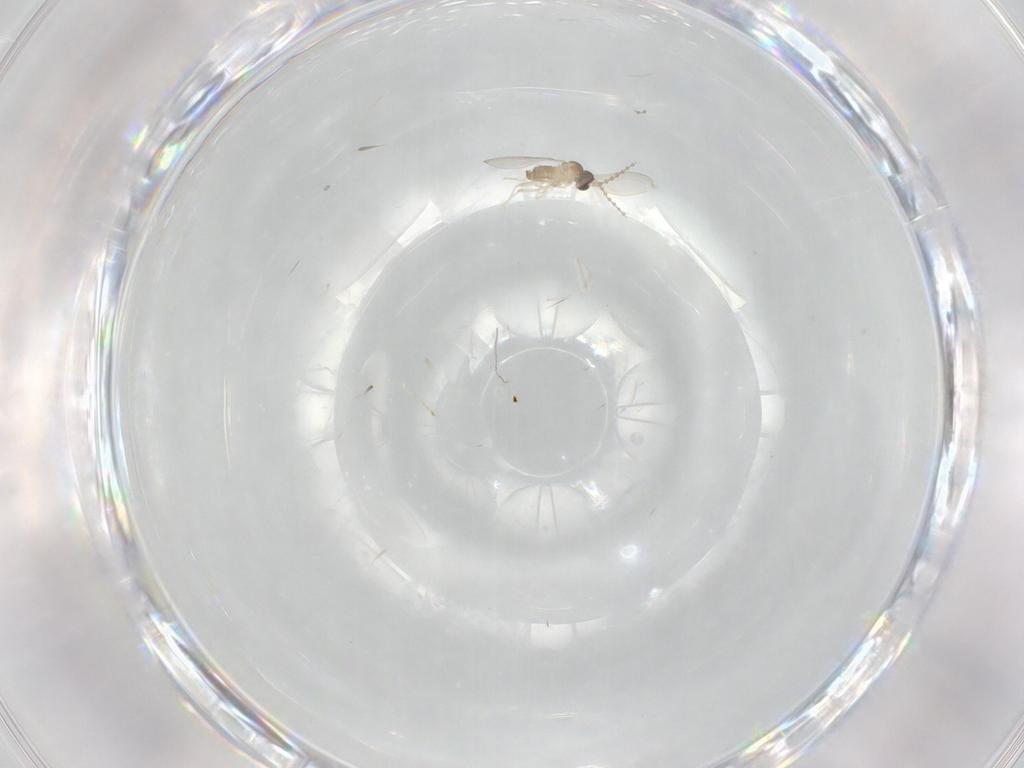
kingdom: Animalia
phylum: Arthropoda
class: Insecta
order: Diptera
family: Cecidomyiidae
